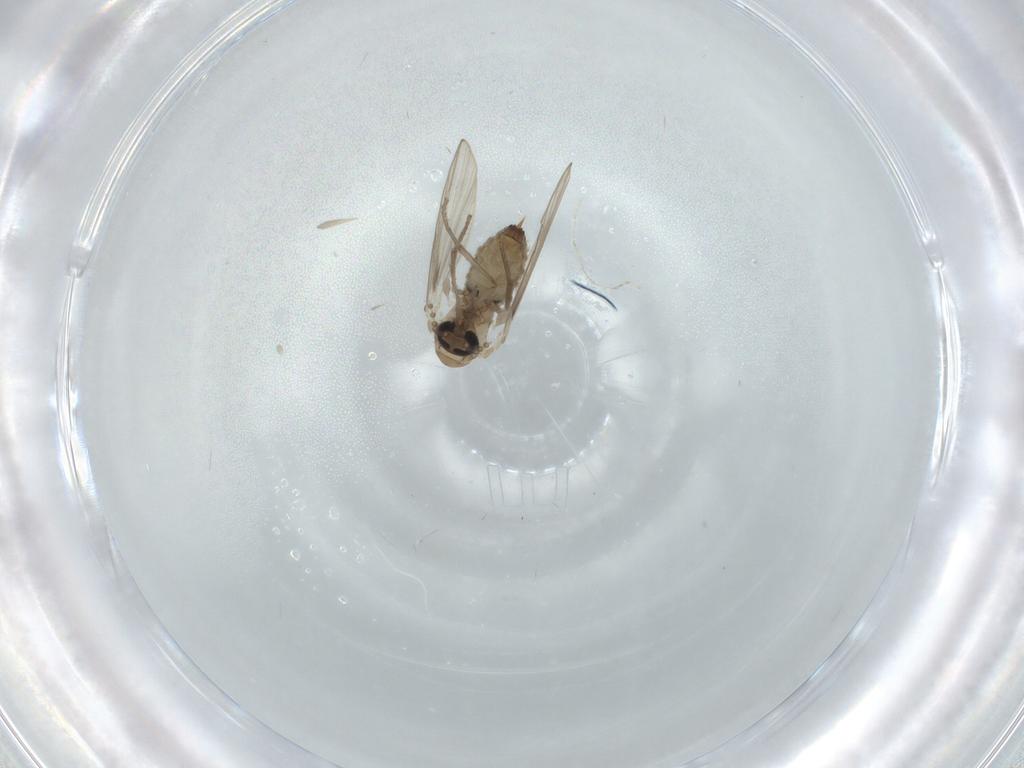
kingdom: Animalia
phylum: Arthropoda
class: Insecta
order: Diptera
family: Psychodidae
